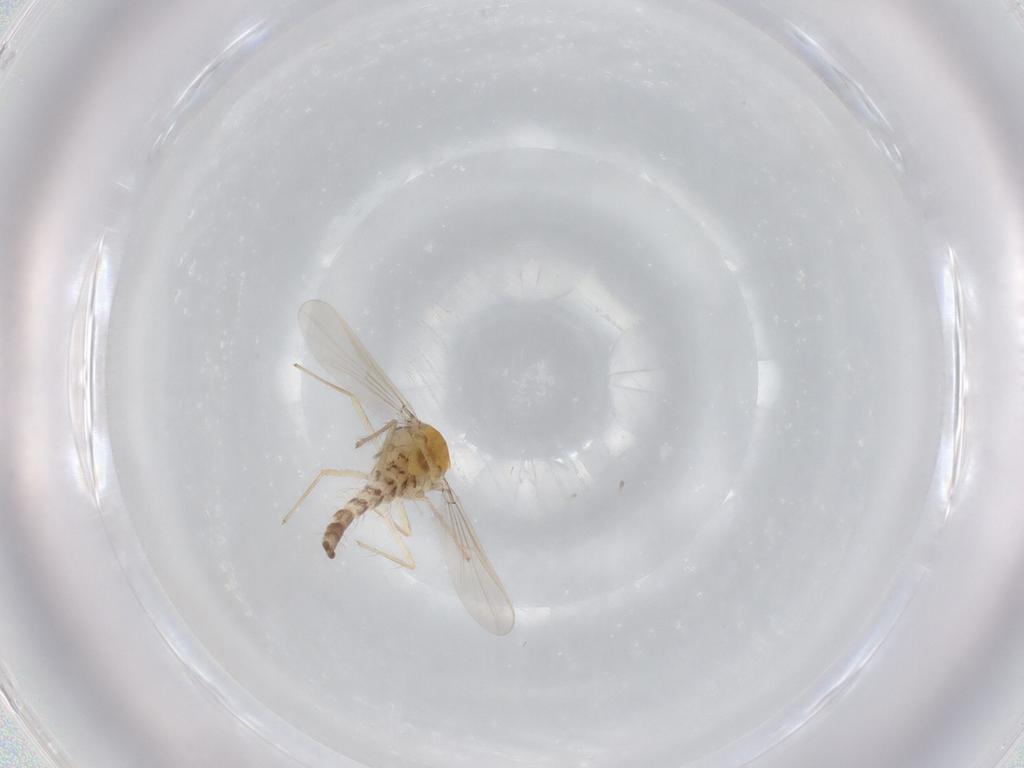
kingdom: Animalia
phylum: Arthropoda
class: Insecta
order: Diptera
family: Chironomidae
